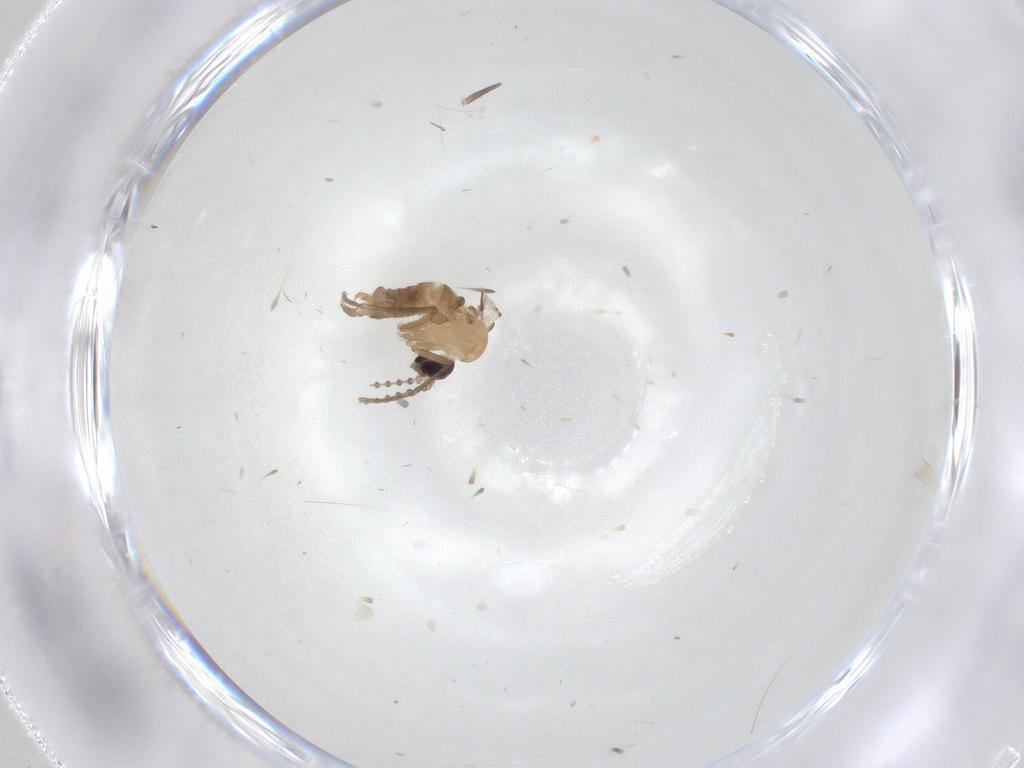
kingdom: Animalia
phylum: Arthropoda
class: Insecta
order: Diptera
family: Psychodidae
